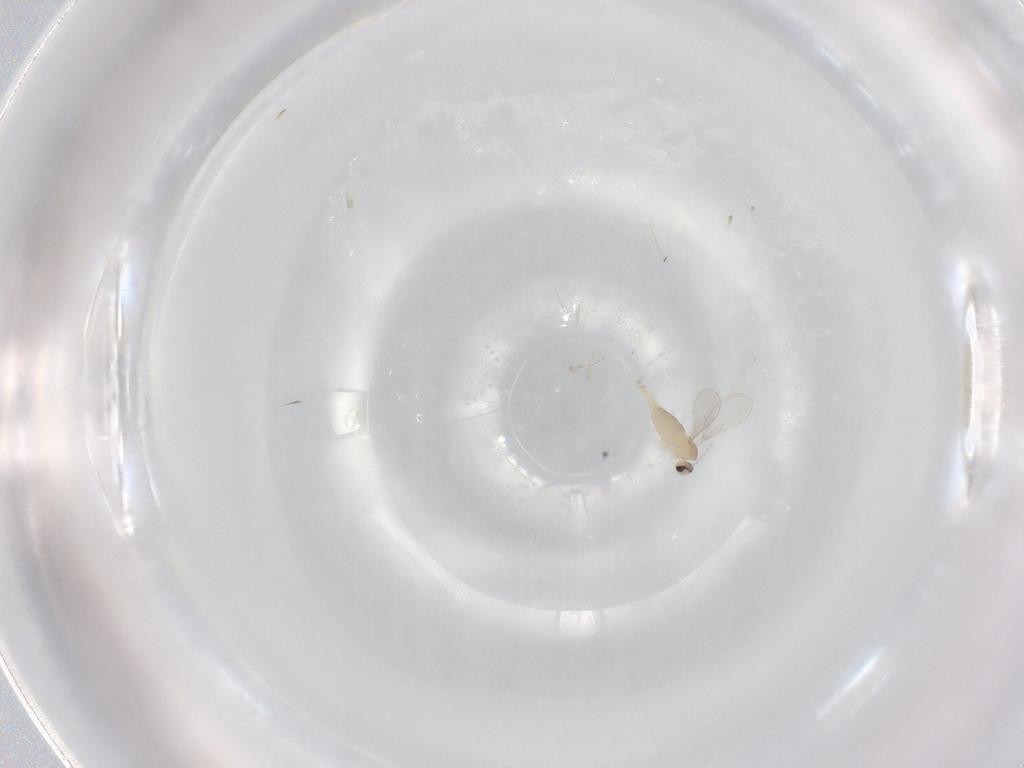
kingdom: Animalia
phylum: Arthropoda
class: Insecta
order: Diptera
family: Cecidomyiidae
